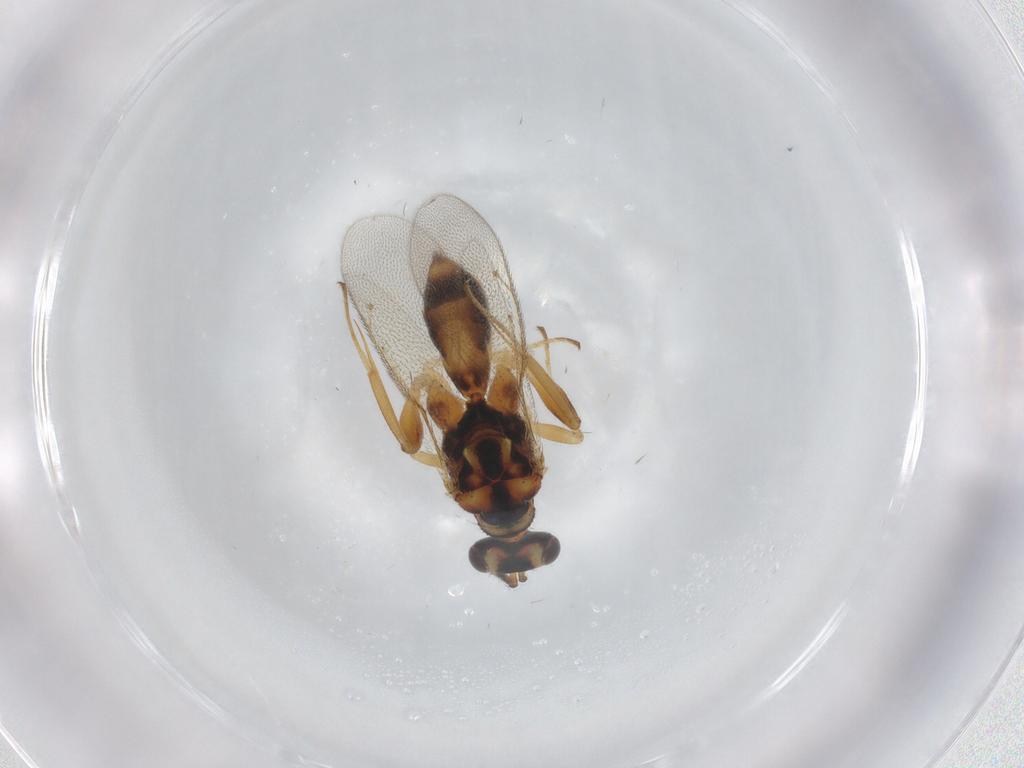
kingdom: Animalia
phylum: Arthropoda
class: Insecta
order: Hymenoptera
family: Eulophidae
